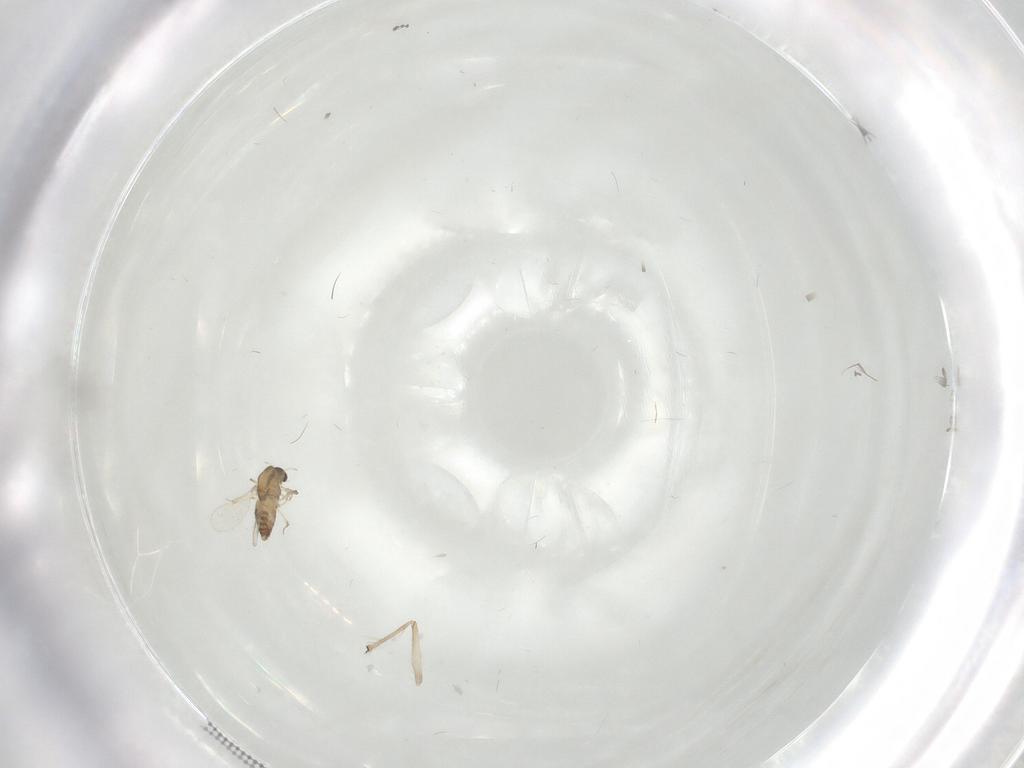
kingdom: Animalia
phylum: Arthropoda
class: Insecta
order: Diptera
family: Chironomidae
